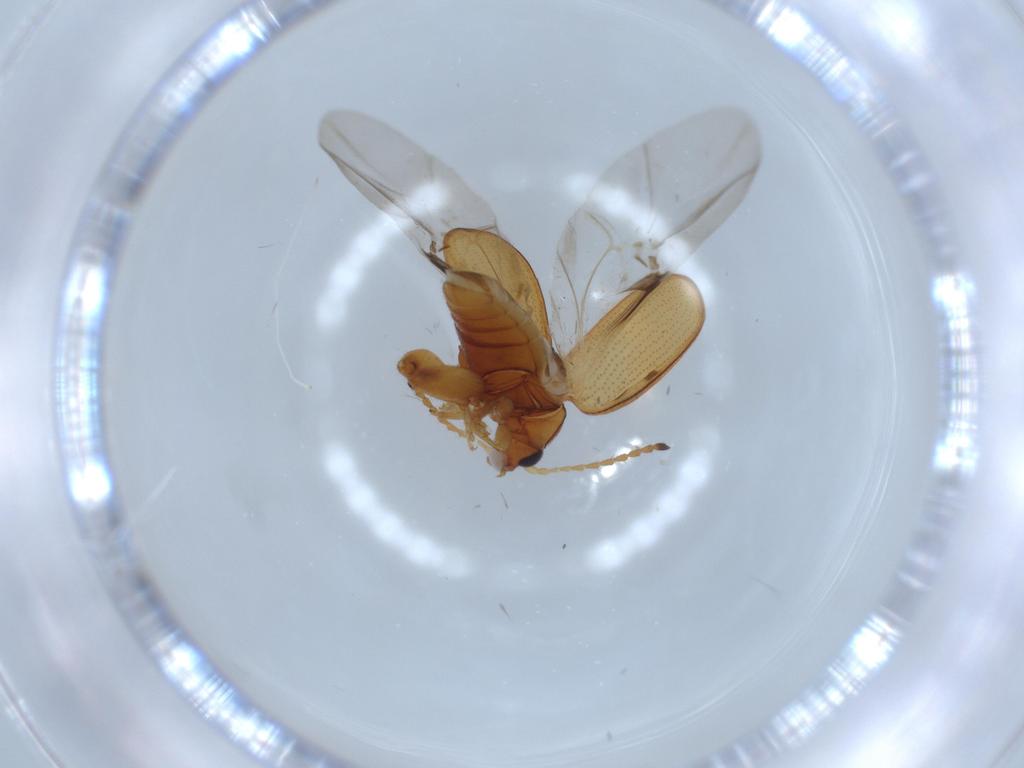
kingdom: Animalia
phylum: Arthropoda
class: Insecta
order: Coleoptera
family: Chrysomelidae
